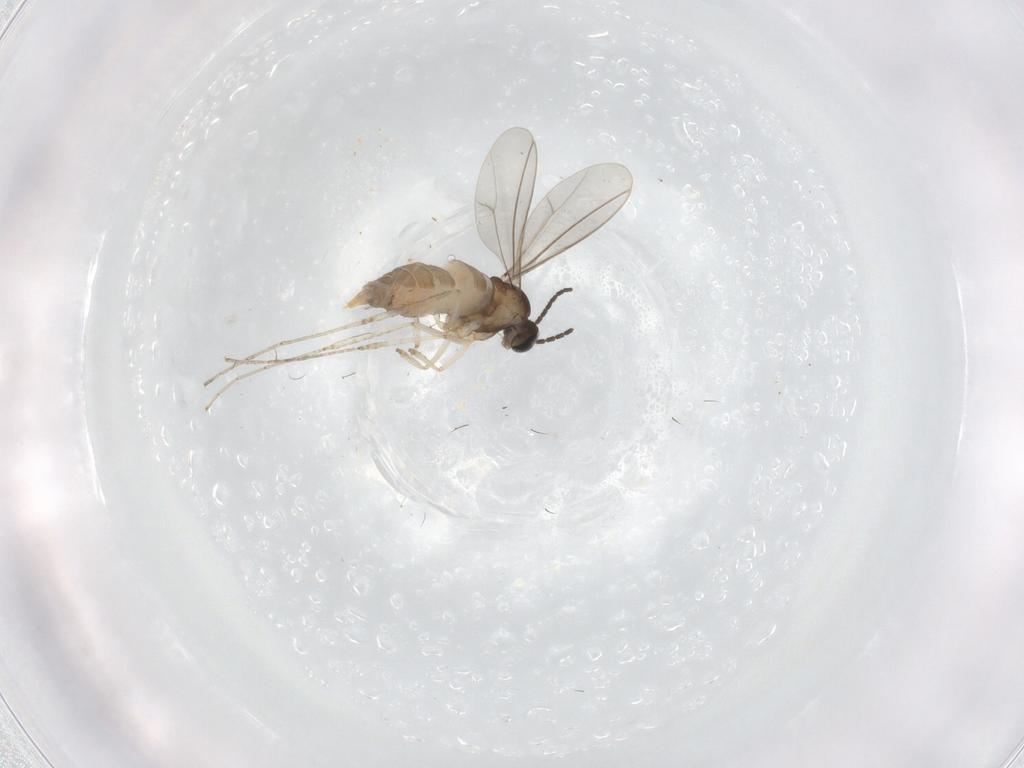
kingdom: Animalia
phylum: Arthropoda
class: Insecta
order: Diptera
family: Cecidomyiidae
